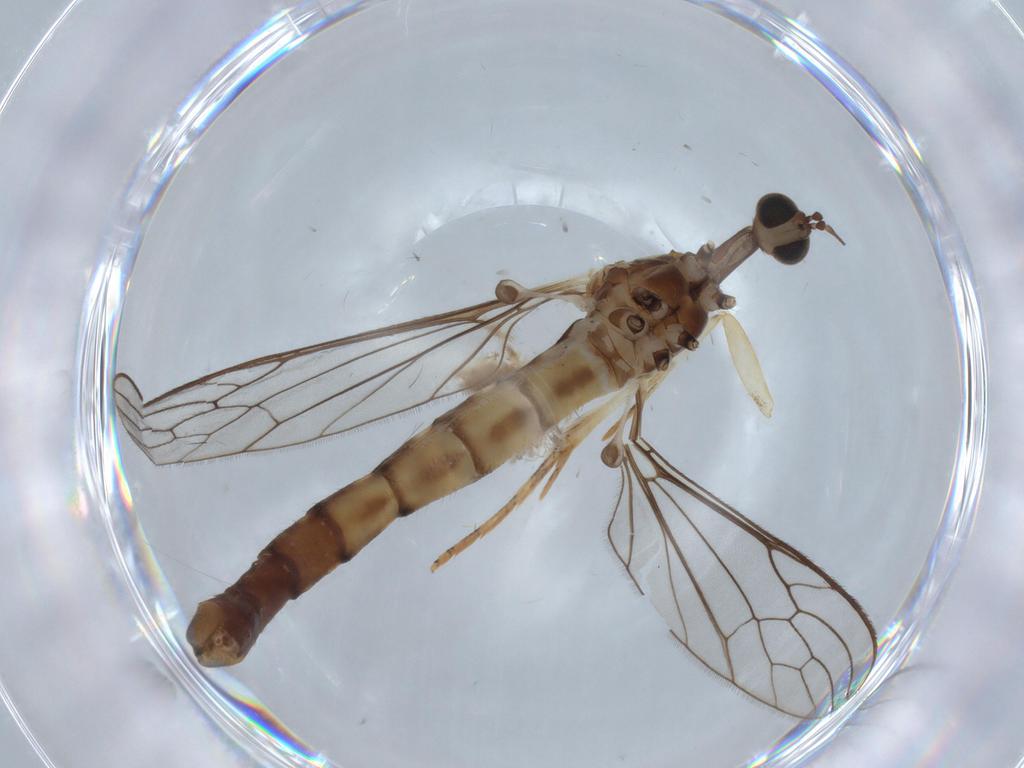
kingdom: Animalia
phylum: Arthropoda
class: Insecta
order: Diptera
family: Limoniidae
